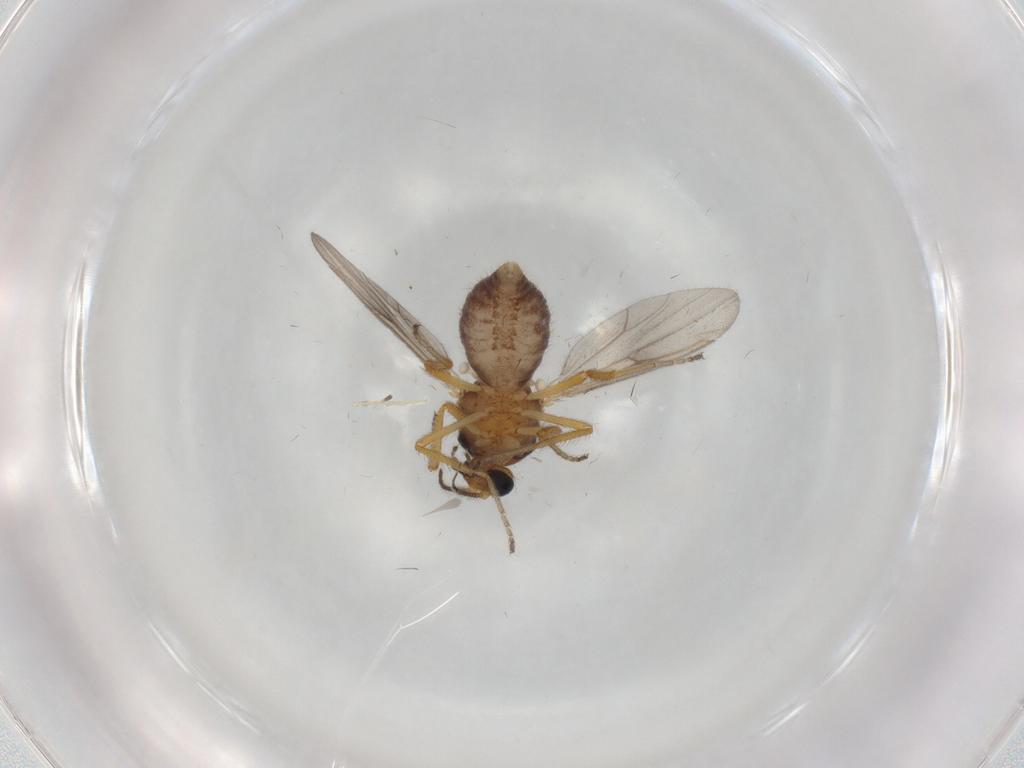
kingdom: Animalia
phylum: Arthropoda
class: Insecta
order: Diptera
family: Ceratopogonidae
